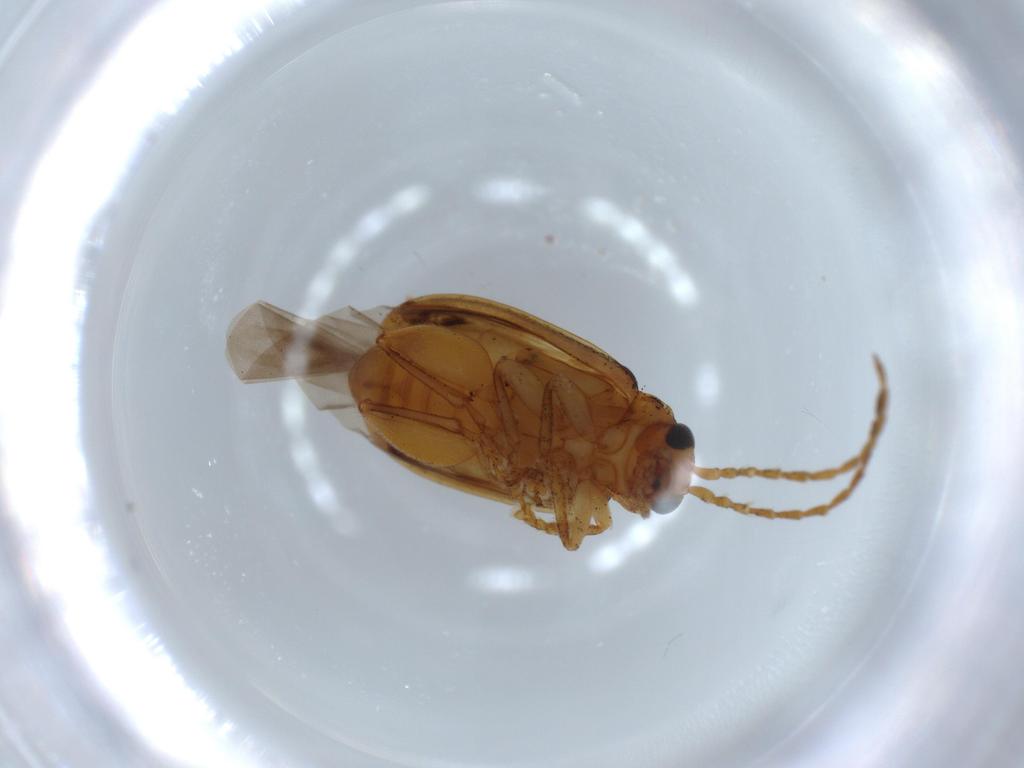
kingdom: Animalia
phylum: Arthropoda
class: Insecta
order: Coleoptera
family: Chrysomelidae
